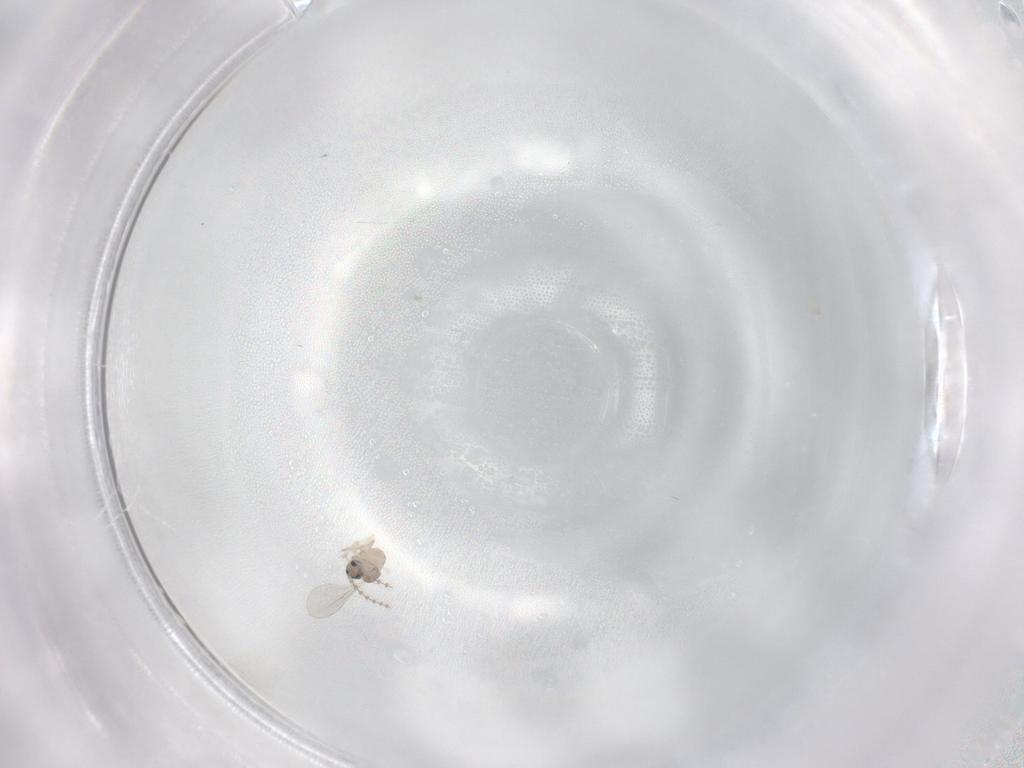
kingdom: Animalia
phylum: Arthropoda
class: Insecta
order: Diptera
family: Cecidomyiidae
